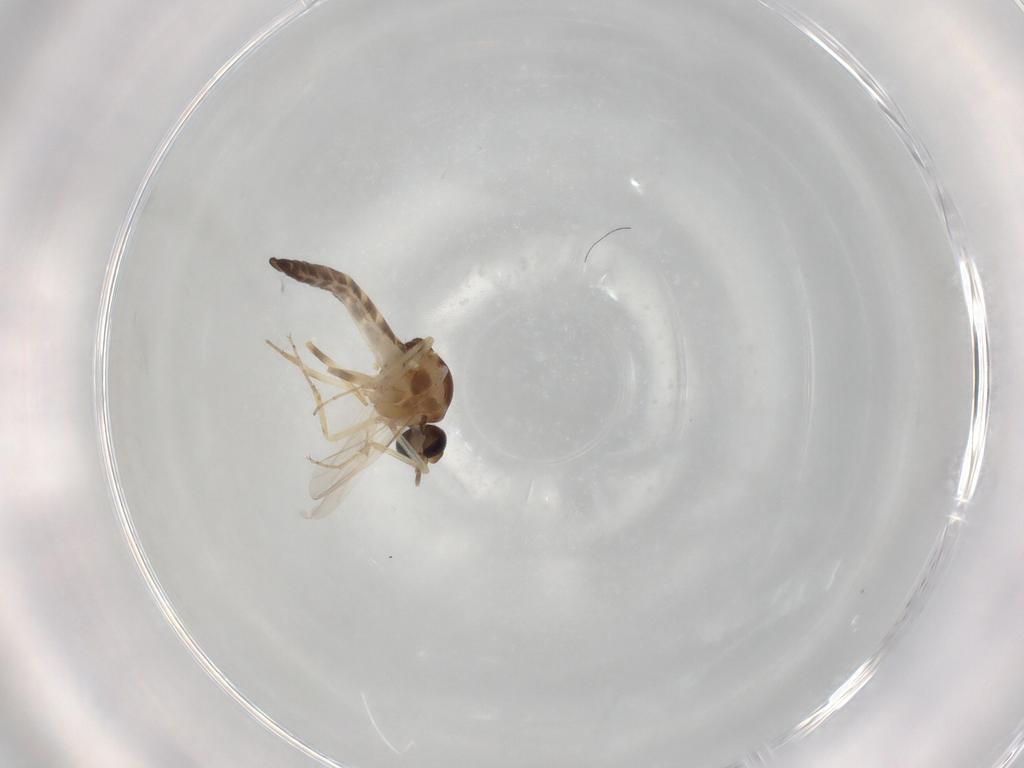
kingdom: Animalia
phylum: Arthropoda
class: Insecta
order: Diptera
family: Ceratopogonidae
